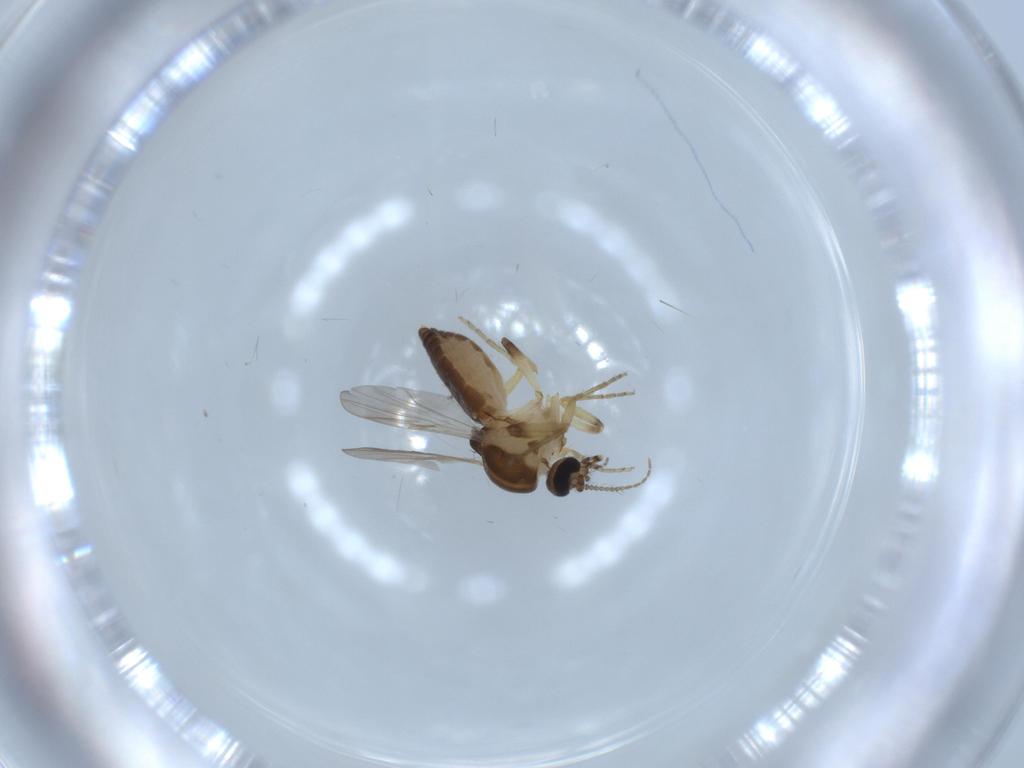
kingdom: Animalia
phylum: Arthropoda
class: Insecta
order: Diptera
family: Ceratopogonidae
